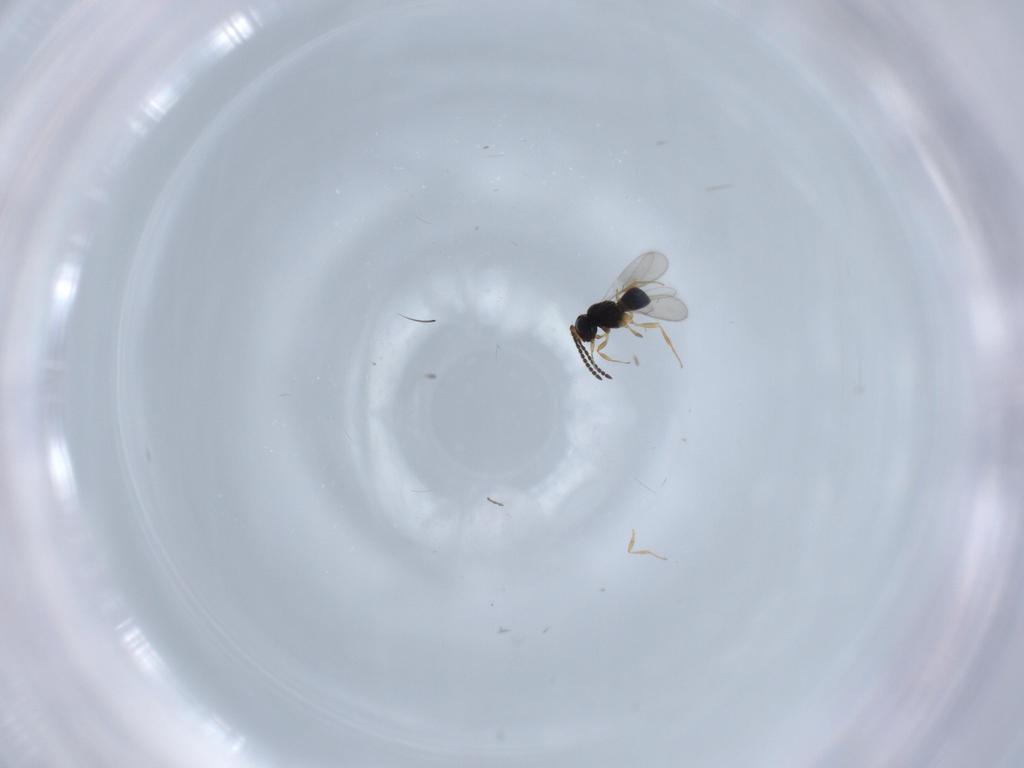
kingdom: Animalia
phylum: Arthropoda
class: Insecta
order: Hymenoptera
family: Scelionidae
